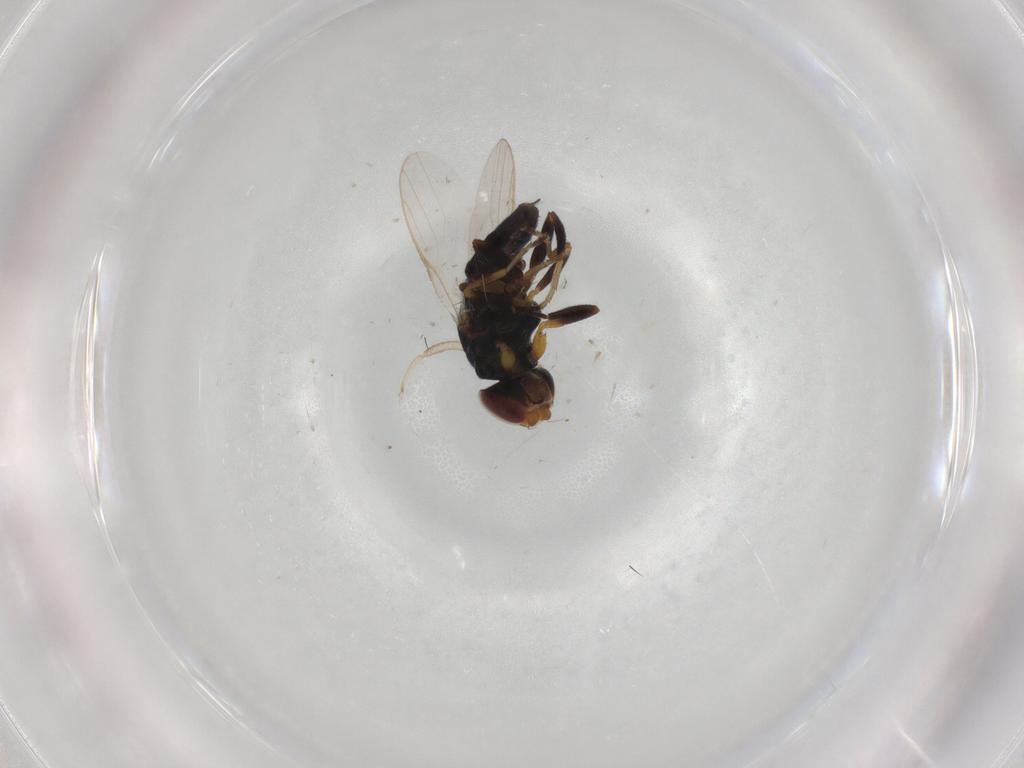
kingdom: Animalia
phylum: Arthropoda
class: Insecta
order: Diptera
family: Chloropidae
